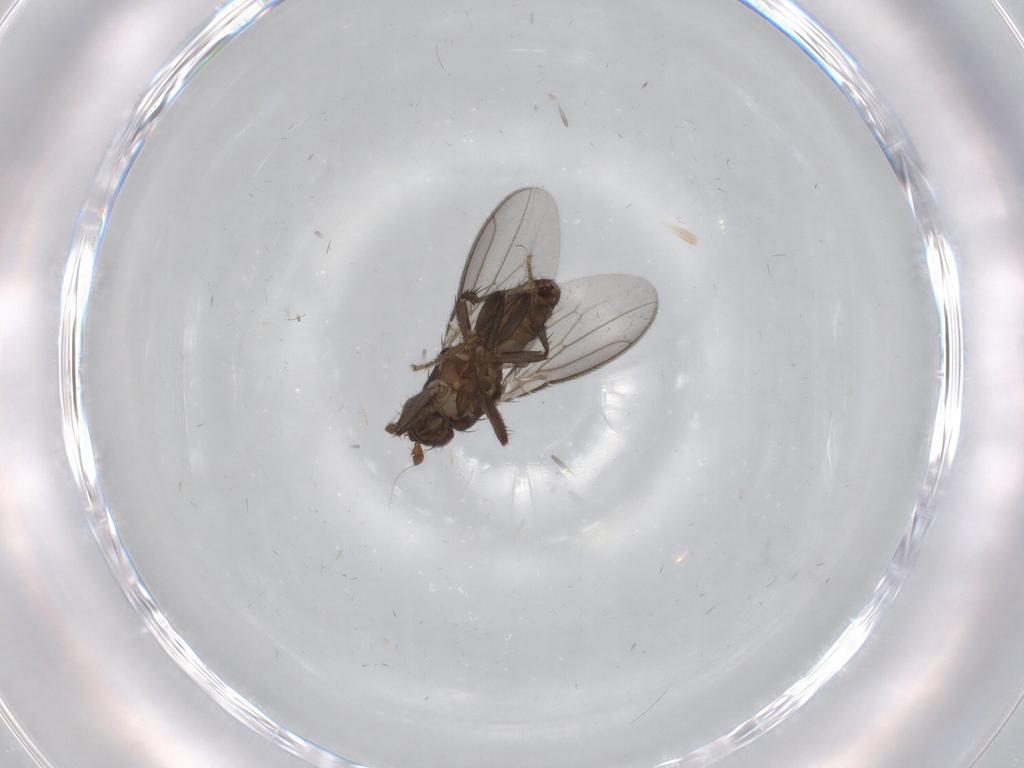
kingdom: Animalia
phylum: Arthropoda
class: Insecta
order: Diptera
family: Sphaeroceridae
